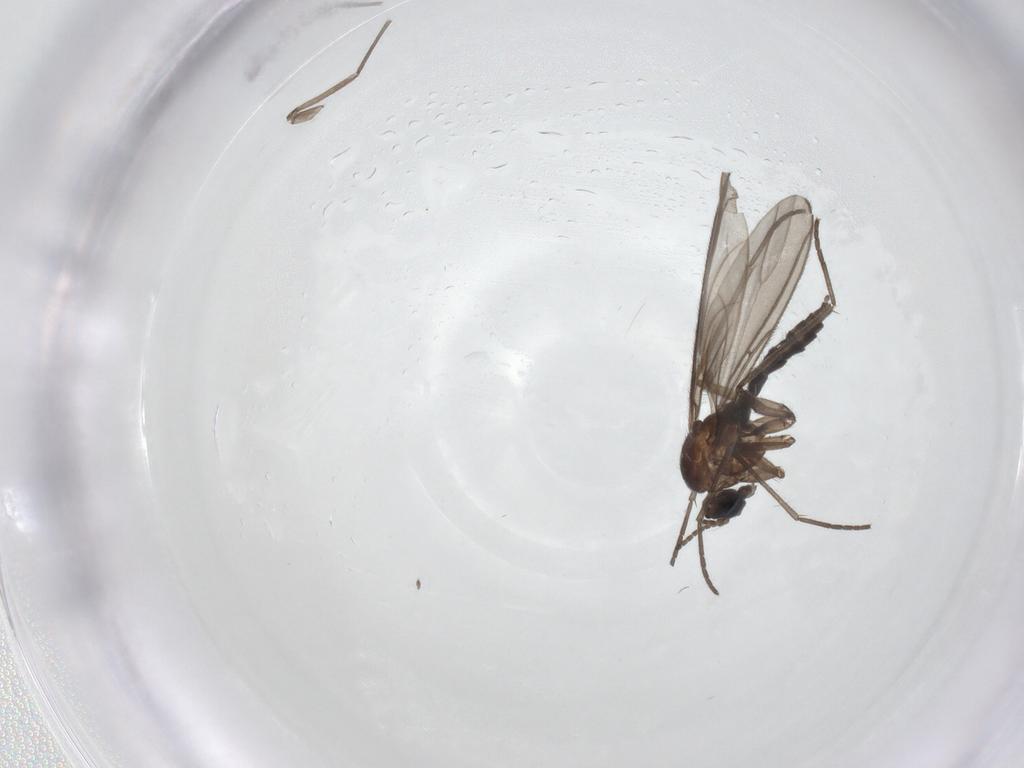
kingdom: Animalia
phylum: Arthropoda
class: Insecta
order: Diptera
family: Sciaridae
